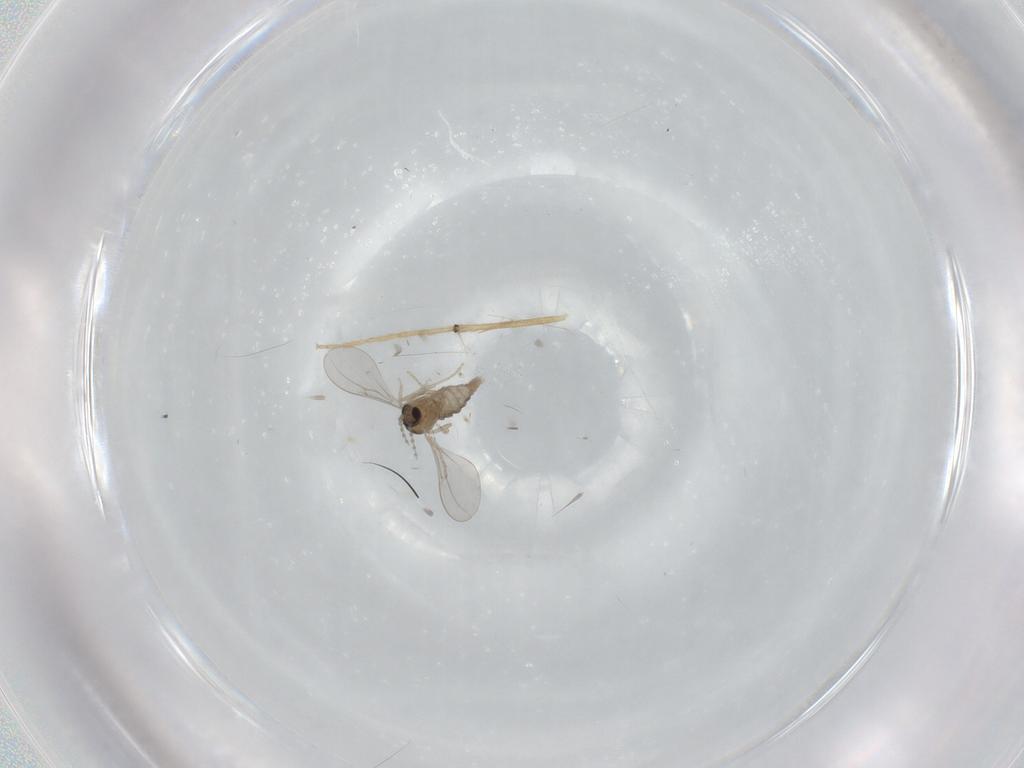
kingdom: Animalia
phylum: Arthropoda
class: Insecta
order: Diptera
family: Cecidomyiidae
